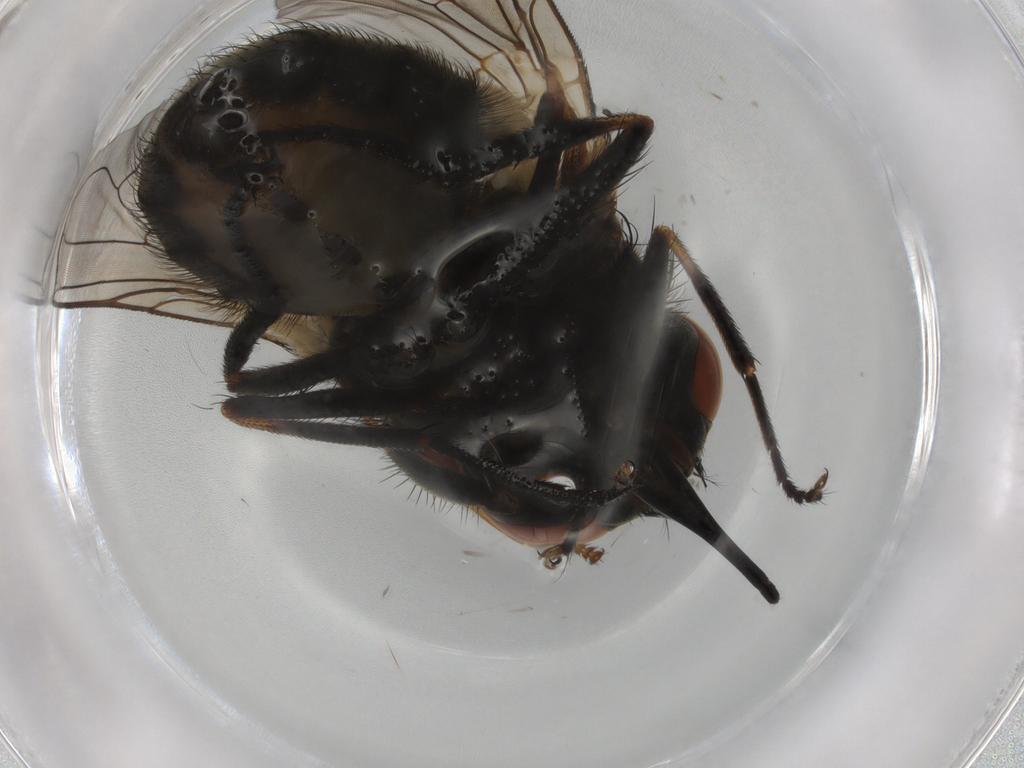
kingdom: Animalia
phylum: Arthropoda
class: Insecta
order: Diptera
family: Muscidae
